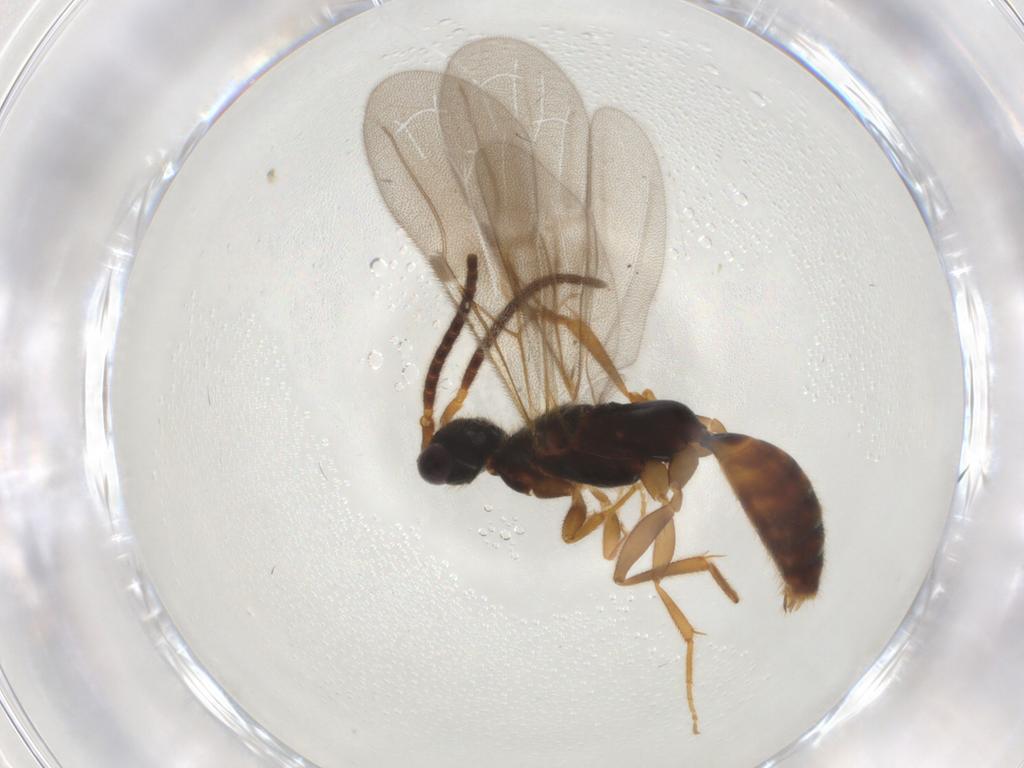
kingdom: Animalia
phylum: Arthropoda
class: Insecta
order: Hymenoptera
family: Bethylidae
